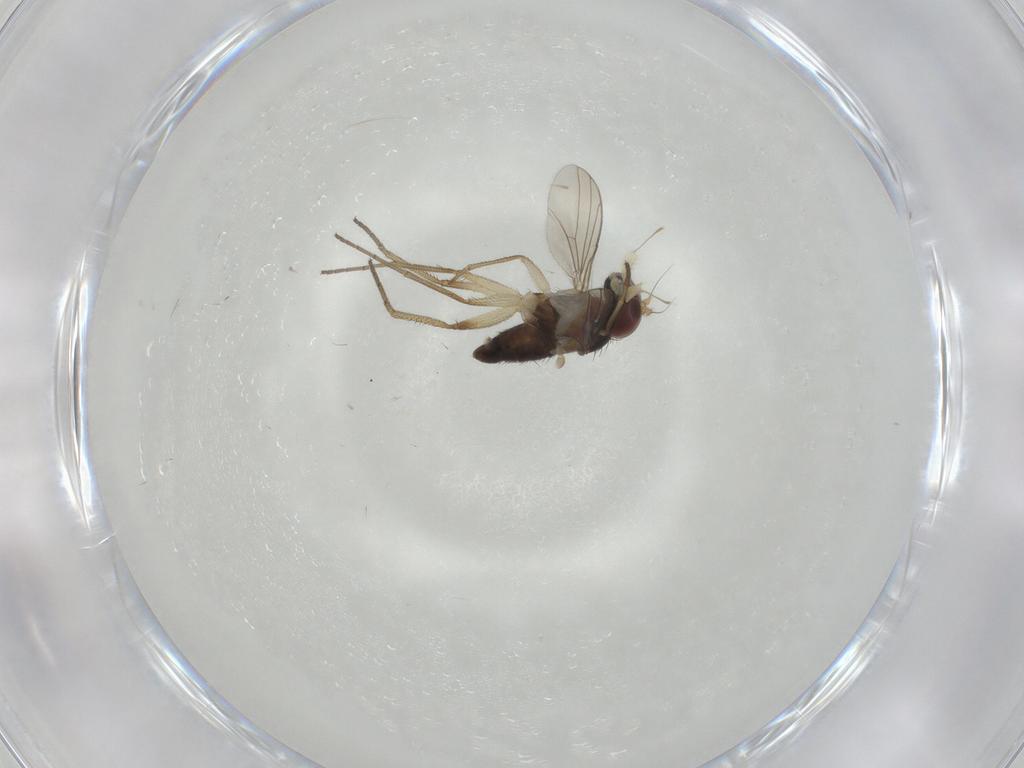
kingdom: Animalia
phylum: Arthropoda
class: Insecta
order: Diptera
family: Dolichopodidae
